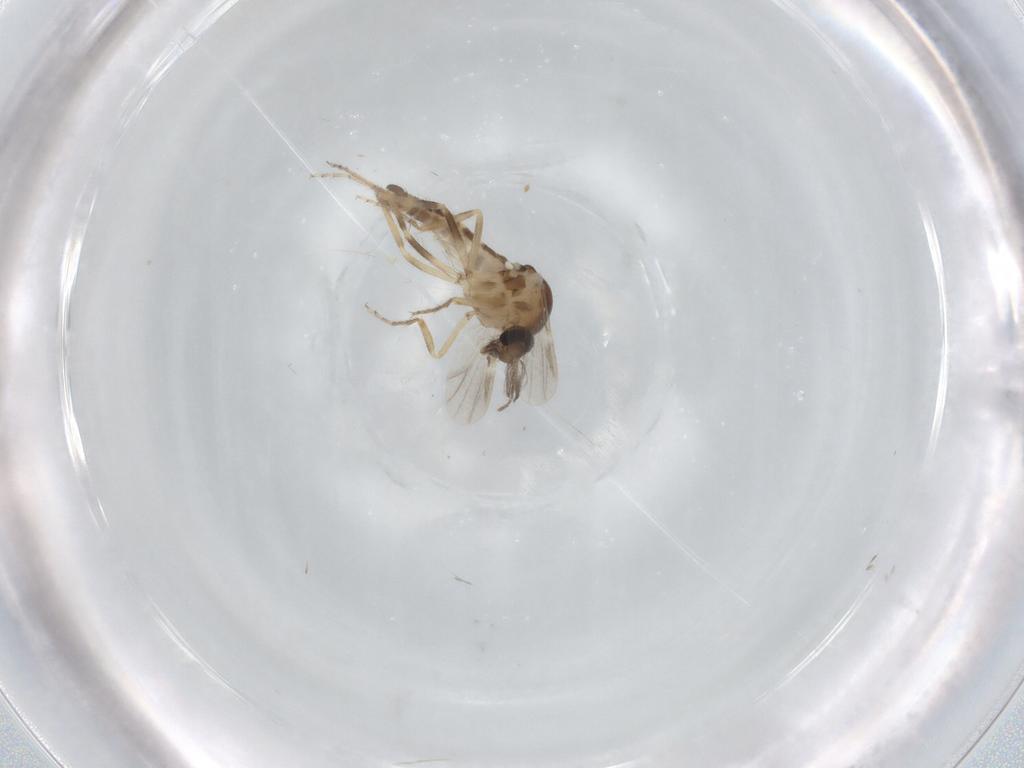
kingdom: Animalia
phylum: Arthropoda
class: Insecta
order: Diptera
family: Ceratopogonidae
